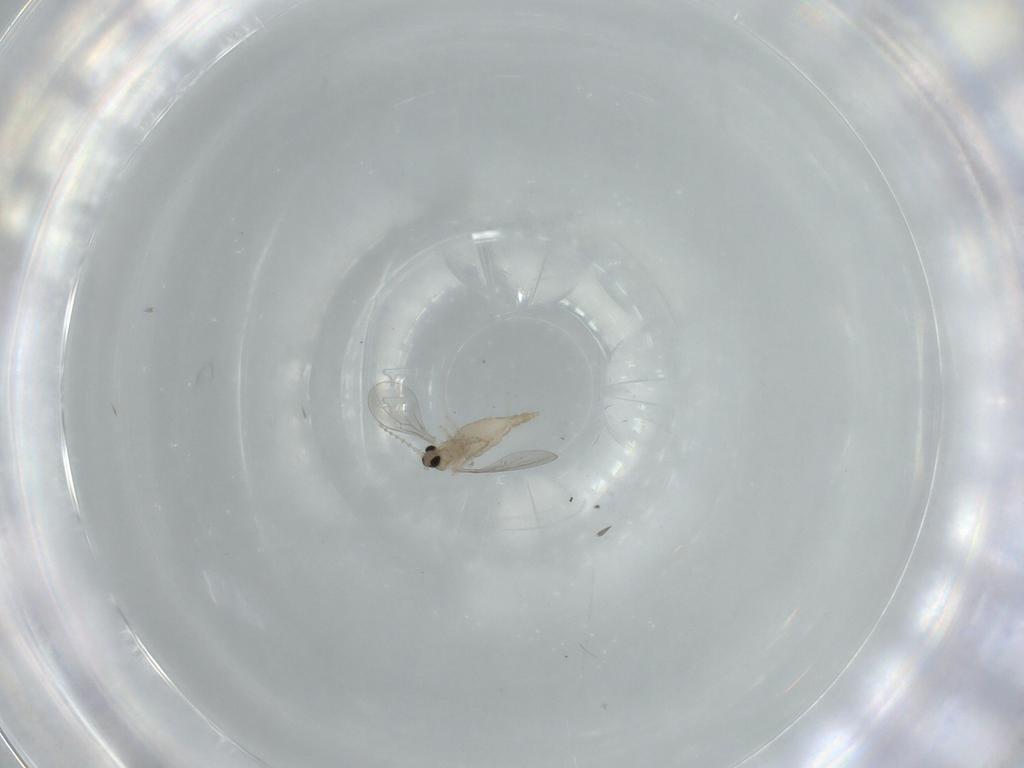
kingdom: Animalia
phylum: Arthropoda
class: Insecta
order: Diptera
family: Cecidomyiidae
